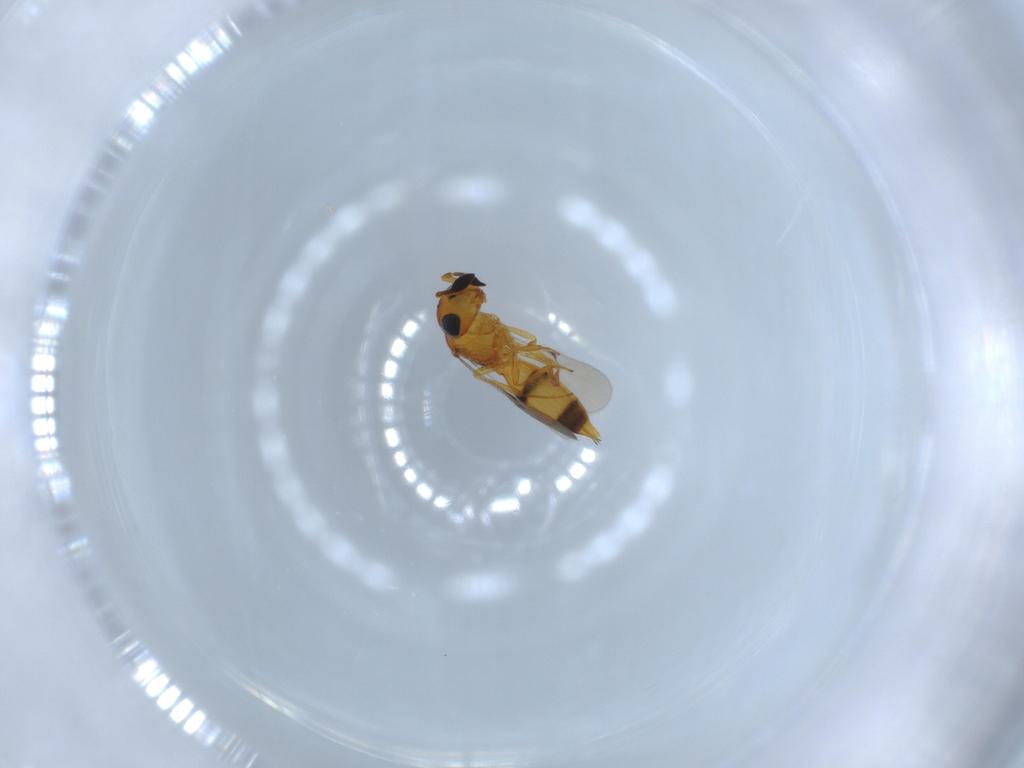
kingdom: Animalia
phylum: Arthropoda
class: Insecta
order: Hymenoptera
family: Scelionidae
